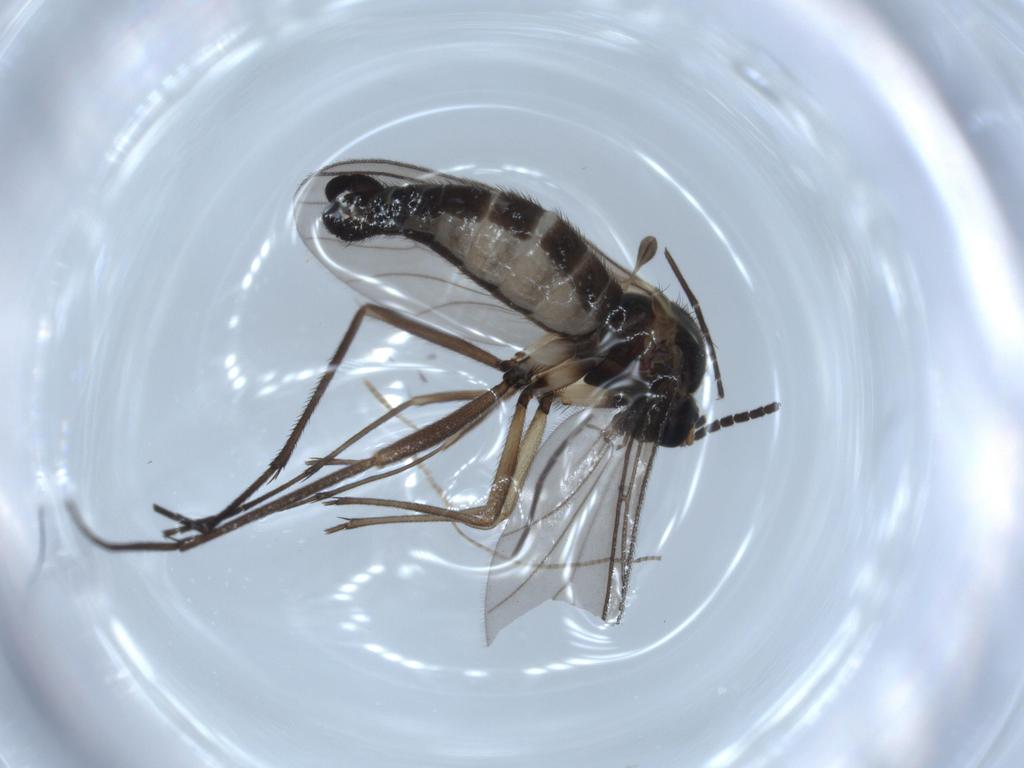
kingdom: Animalia
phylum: Arthropoda
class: Insecta
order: Diptera
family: Sciaridae
